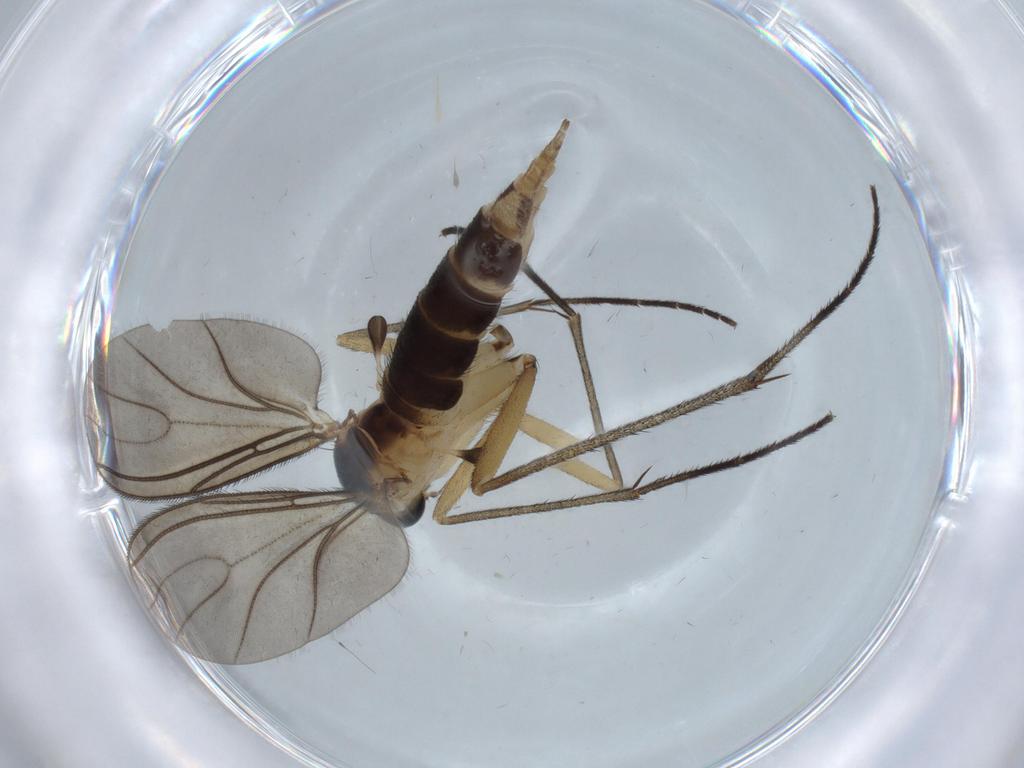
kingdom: Animalia
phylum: Arthropoda
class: Insecta
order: Diptera
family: Sciaridae
